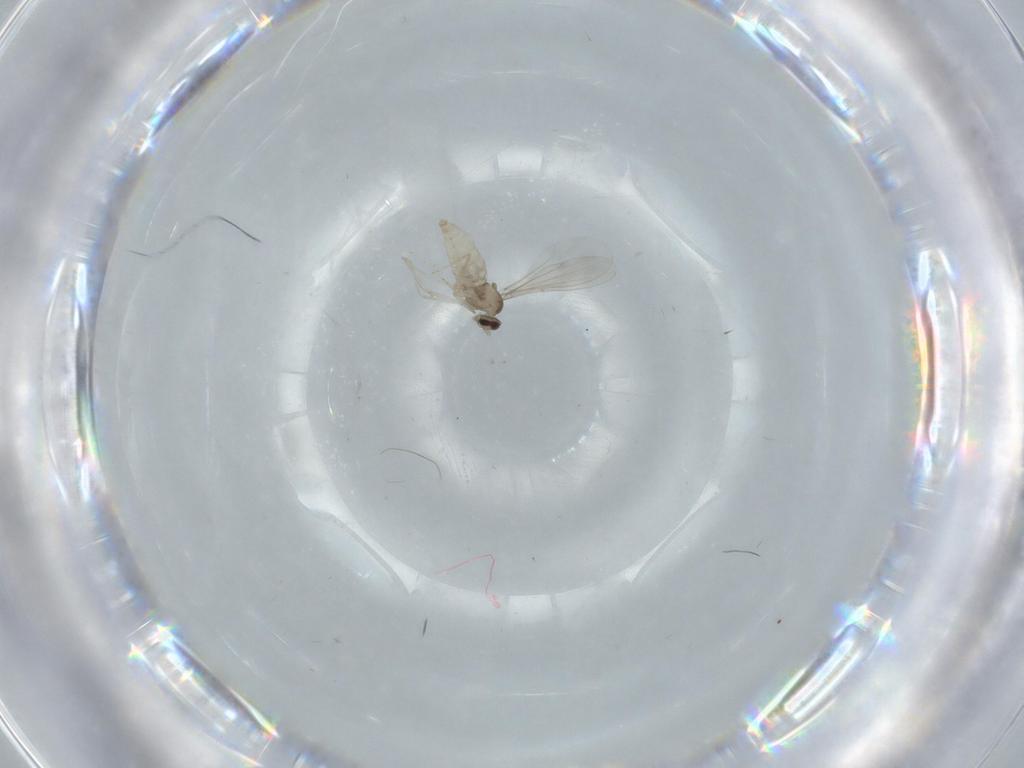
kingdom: Animalia
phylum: Arthropoda
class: Insecta
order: Diptera
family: Cecidomyiidae
